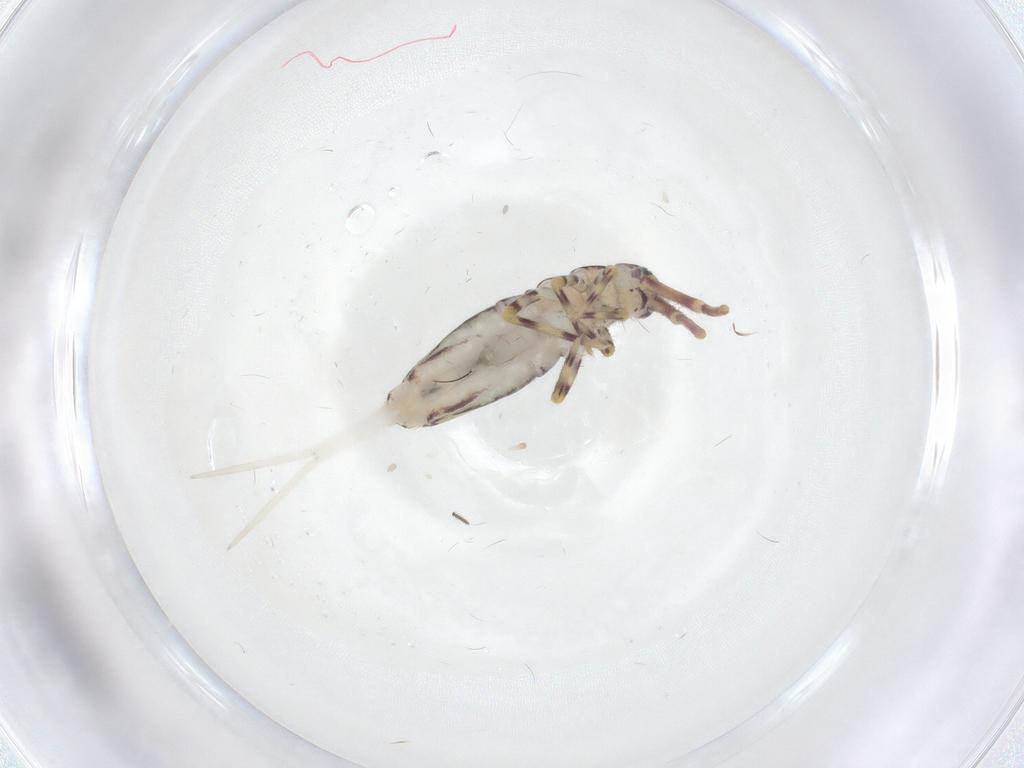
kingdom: Animalia
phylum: Arthropoda
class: Collembola
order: Entomobryomorpha
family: Entomobryidae
